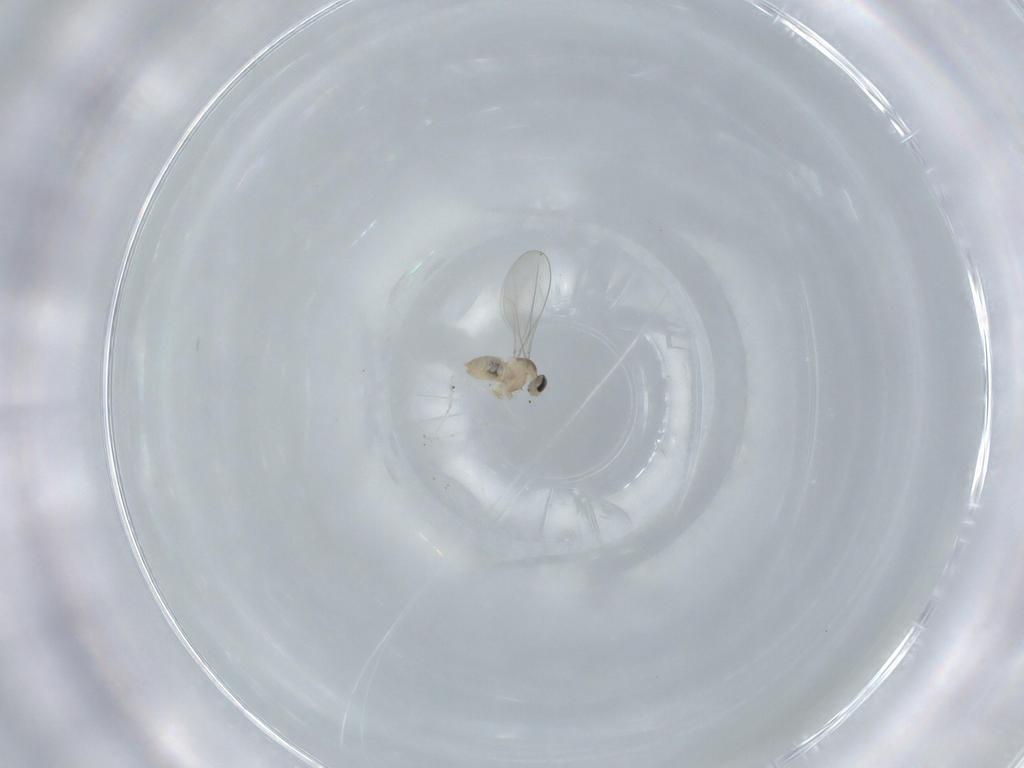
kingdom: Animalia
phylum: Arthropoda
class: Insecta
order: Diptera
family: Cecidomyiidae
